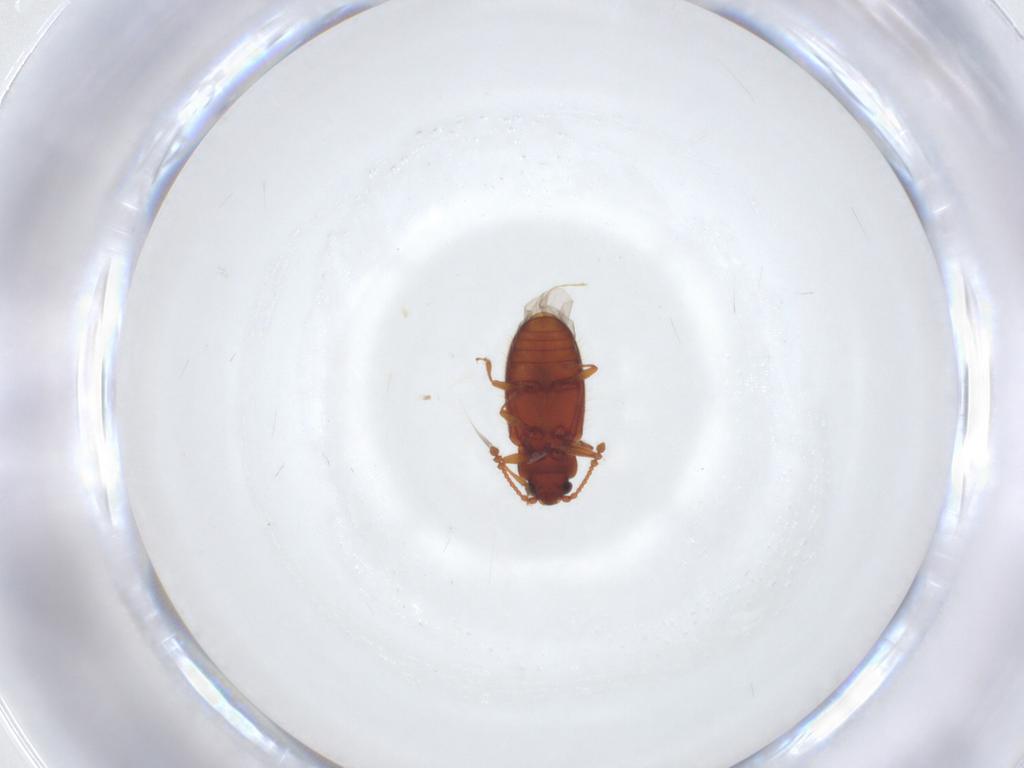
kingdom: Animalia
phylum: Arthropoda
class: Insecta
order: Coleoptera
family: Cryptophagidae
